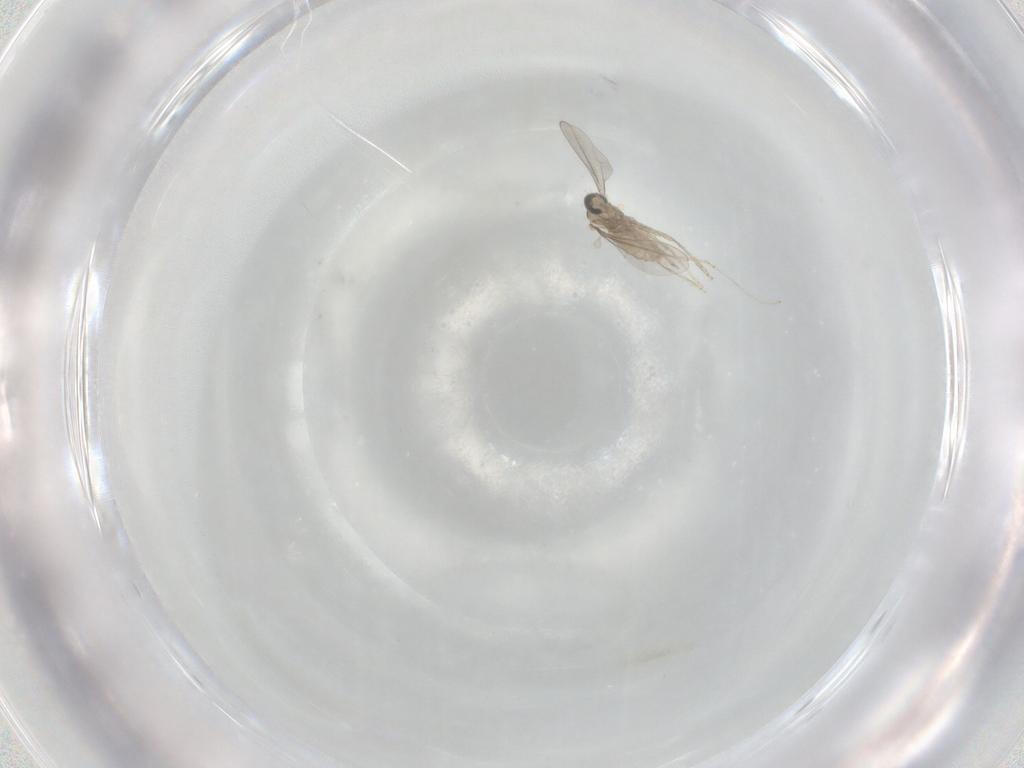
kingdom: Animalia
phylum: Arthropoda
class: Insecta
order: Diptera
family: Cecidomyiidae
